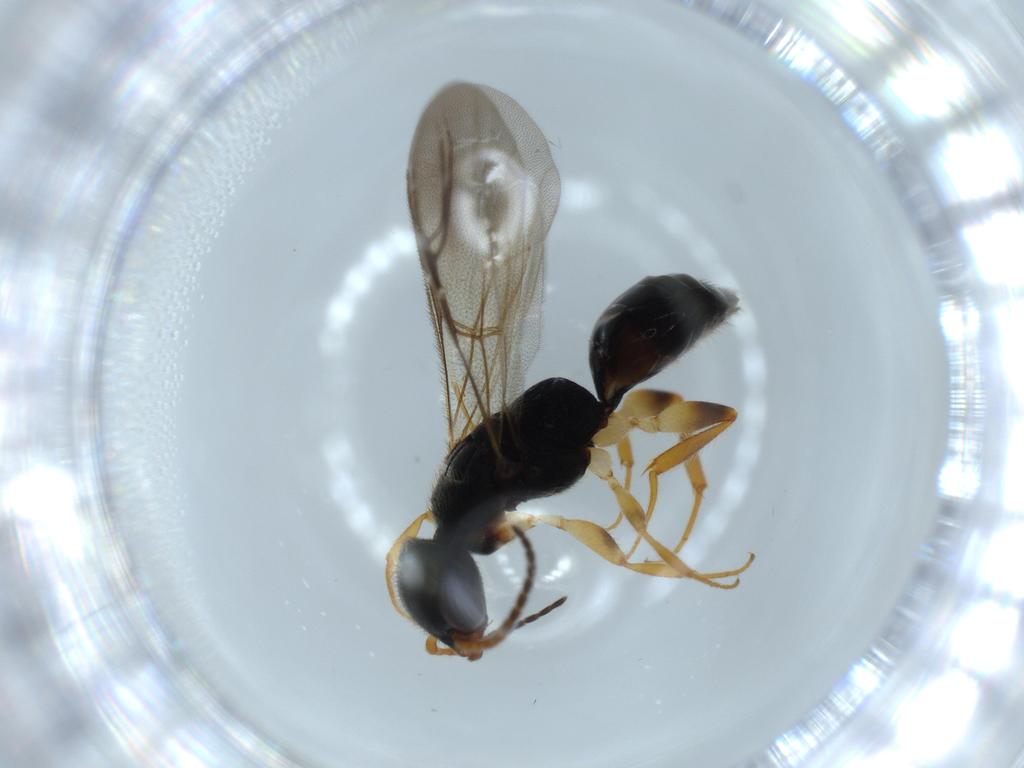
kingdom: Animalia
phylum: Arthropoda
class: Insecta
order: Hymenoptera
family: Bethylidae
